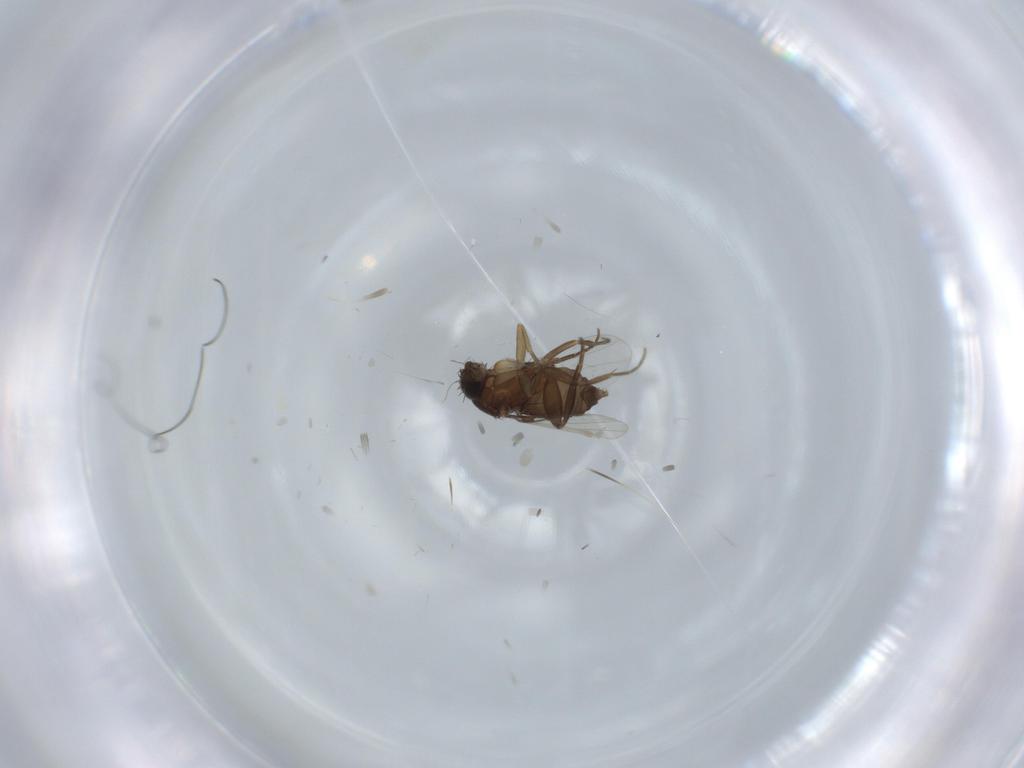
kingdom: Animalia
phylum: Arthropoda
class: Insecta
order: Diptera
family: Phoridae
